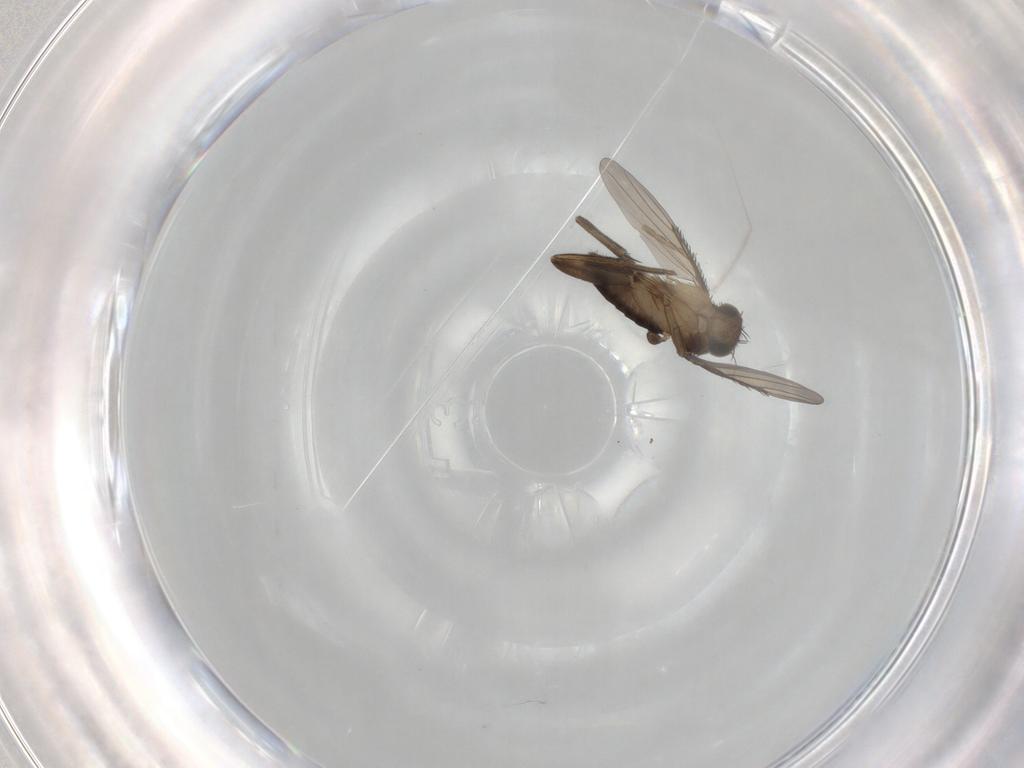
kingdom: Animalia
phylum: Arthropoda
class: Insecta
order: Diptera
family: Phoridae
